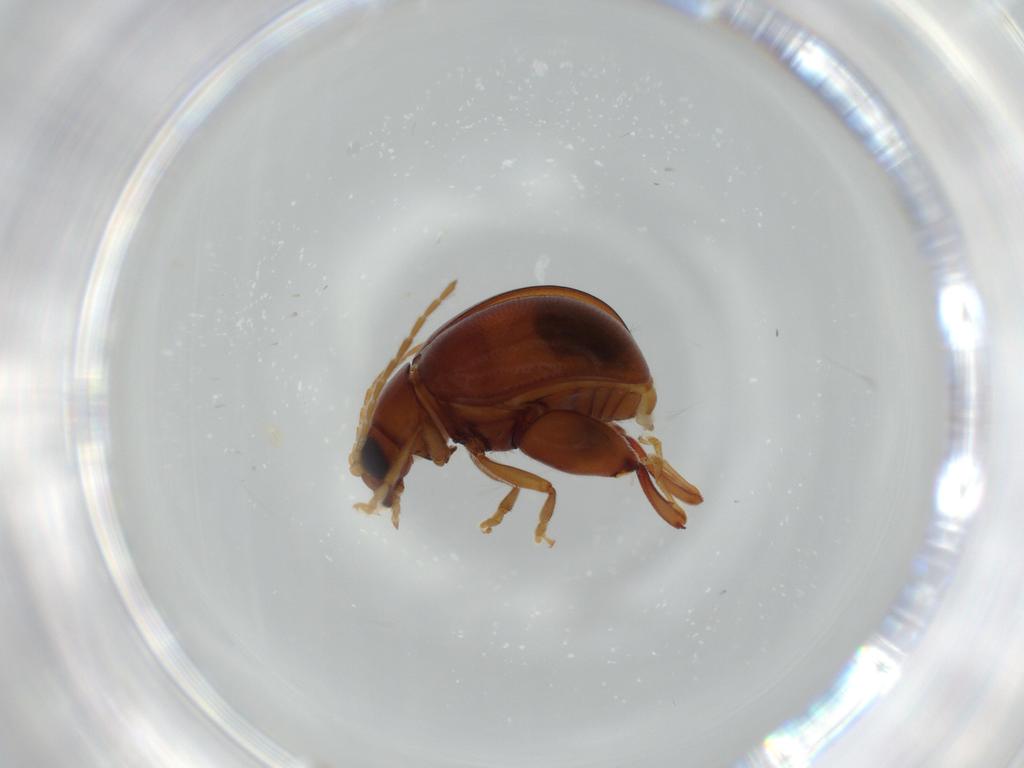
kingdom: Animalia
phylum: Arthropoda
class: Insecta
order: Coleoptera
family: Chrysomelidae
